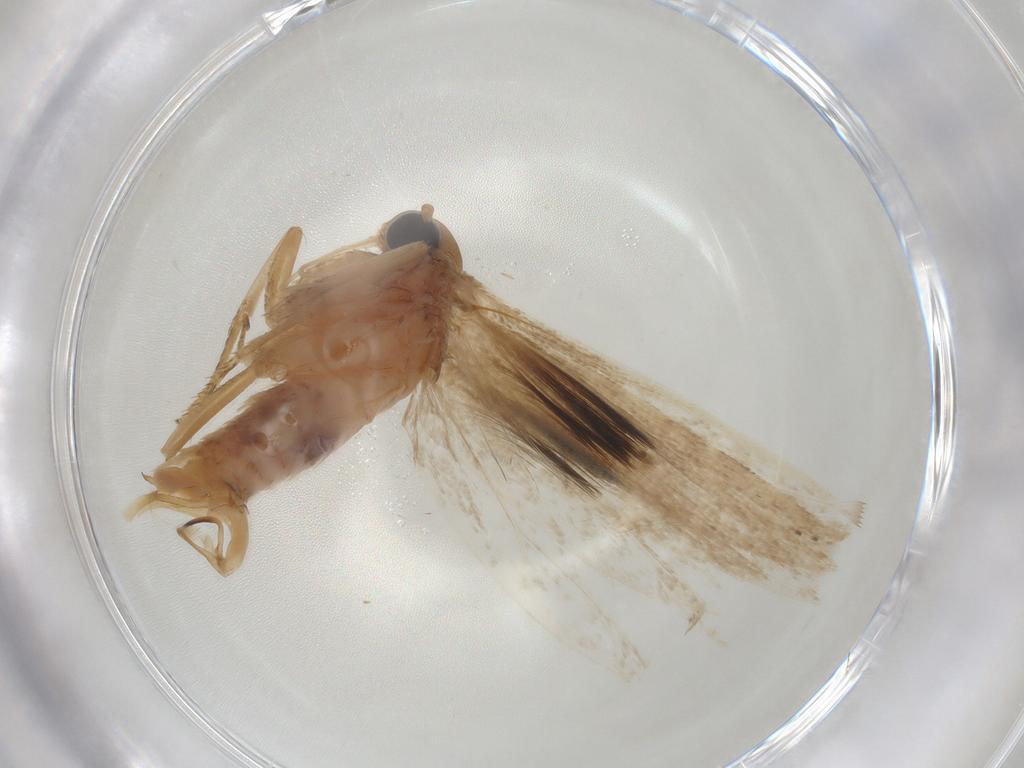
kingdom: Animalia
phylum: Arthropoda
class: Insecta
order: Lepidoptera
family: Crambidae
